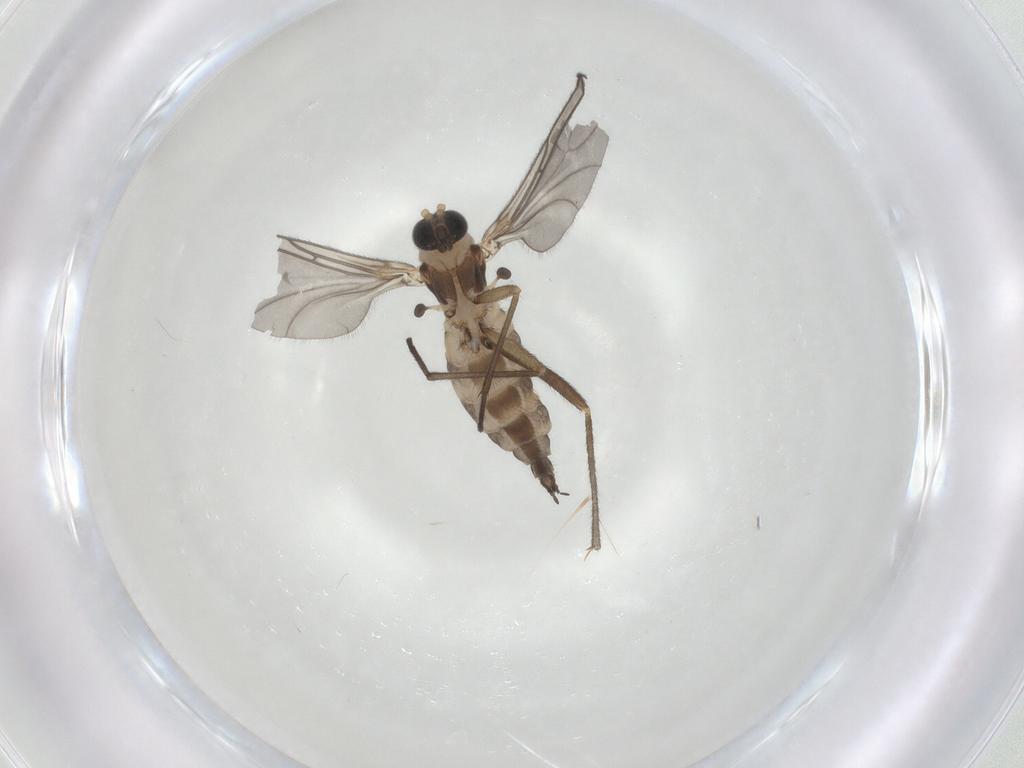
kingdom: Animalia
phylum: Arthropoda
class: Insecta
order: Diptera
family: Sciaridae
